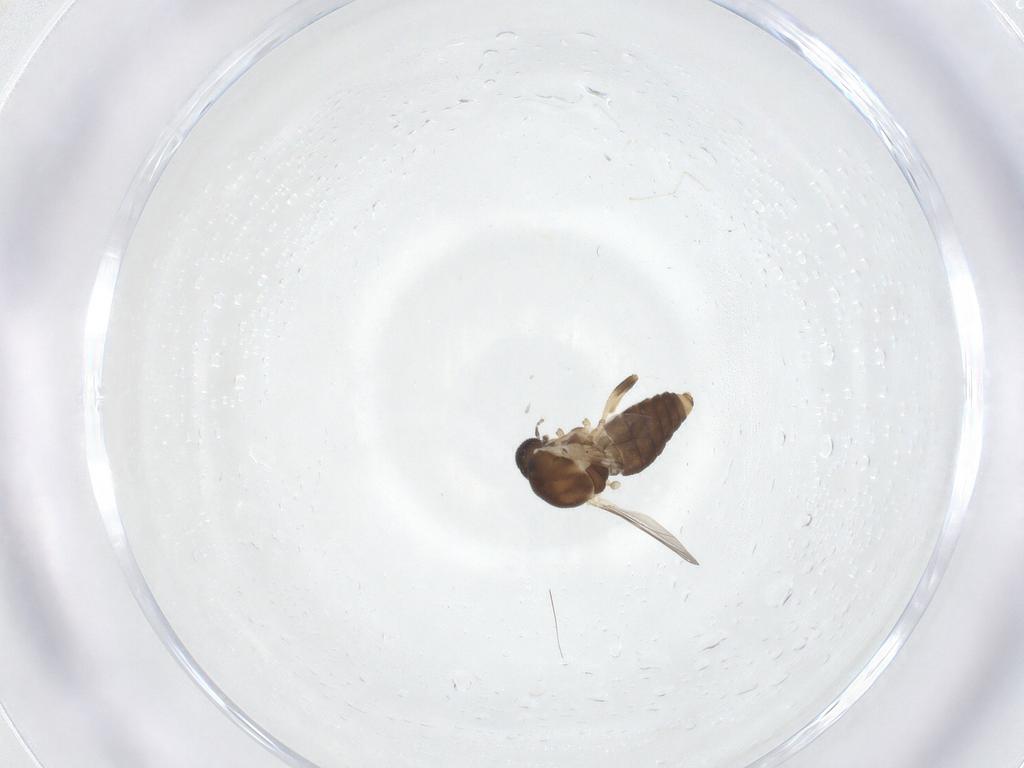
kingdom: Animalia
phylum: Arthropoda
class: Insecta
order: Diptera
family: Ceratopogonidae
